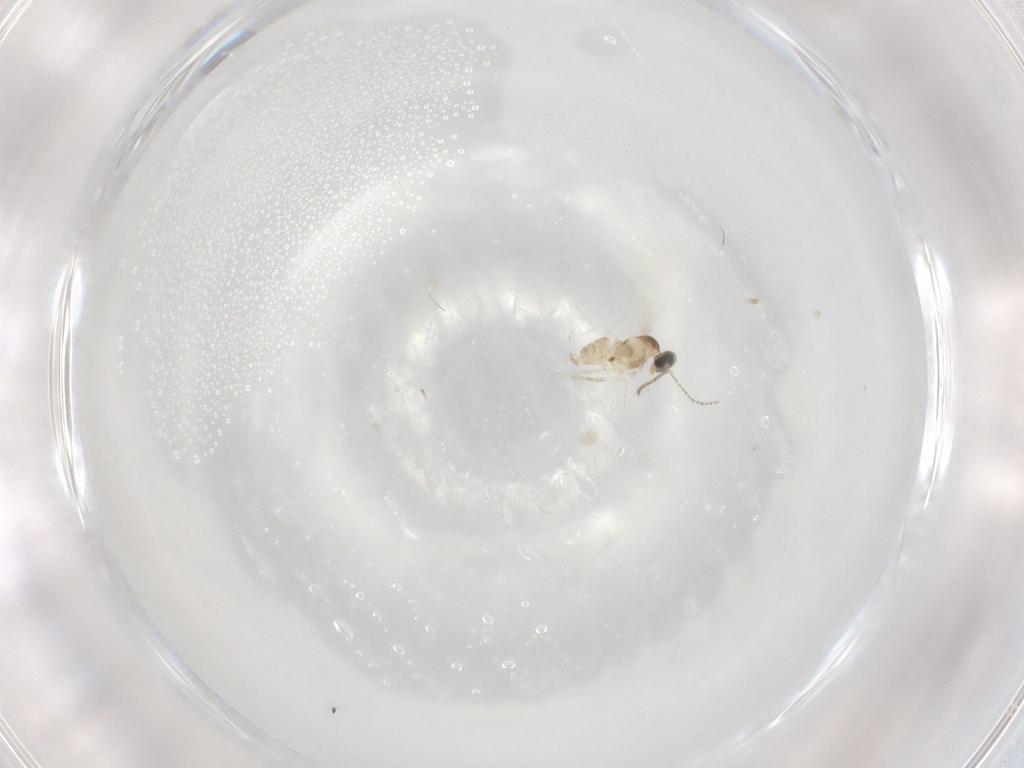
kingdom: Animalia
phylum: Arthropoda
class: Insecta
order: Diptera
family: Cecidomyiidae
